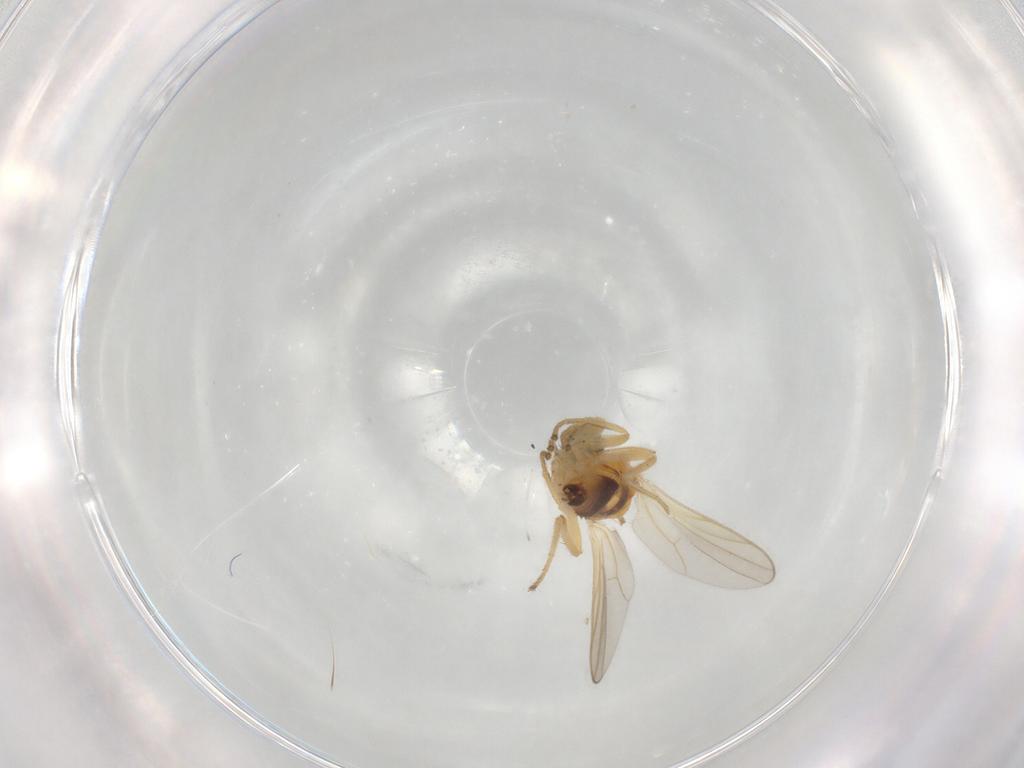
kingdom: Animalia
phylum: Arthropoda
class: Insecta
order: Diptera
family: Hybotidae
